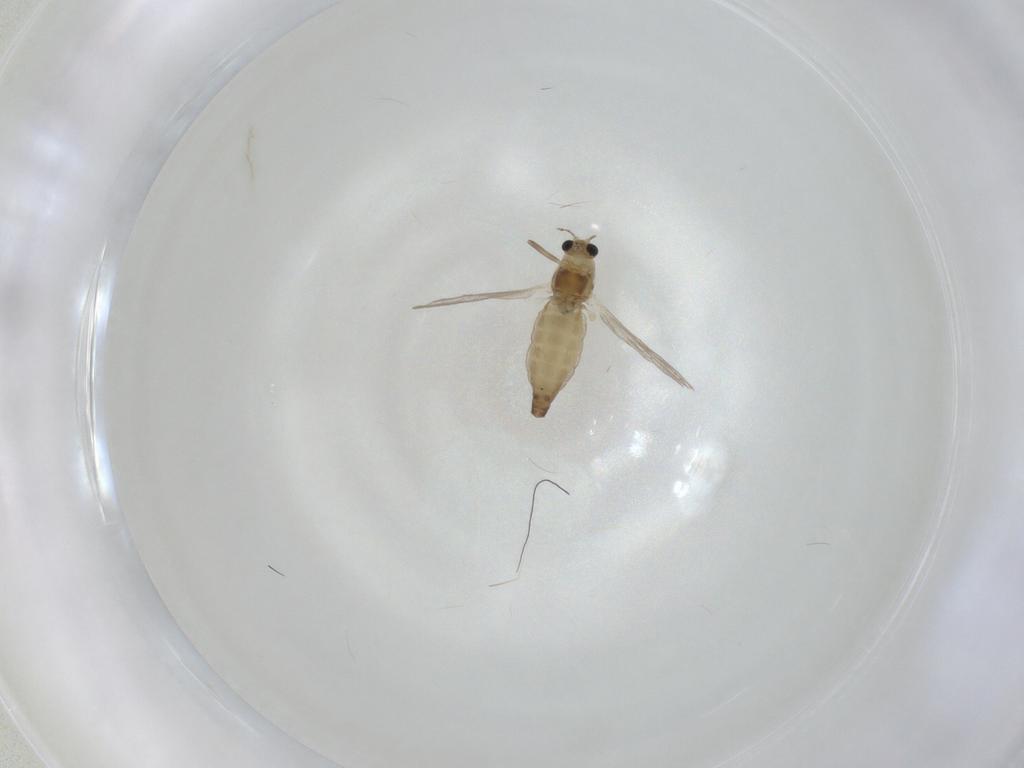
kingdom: Animalia
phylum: Arthropoda
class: Insecta
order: Diptera
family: Chironomidae
